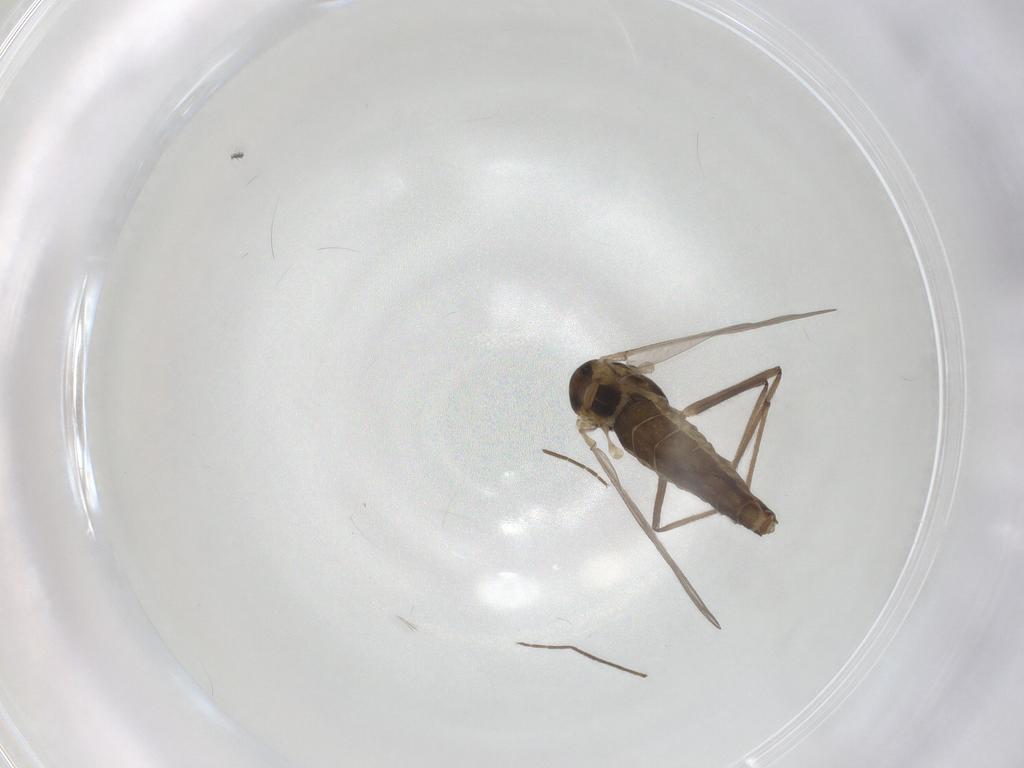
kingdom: Animalia
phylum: Arthropoda
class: Insecta
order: Diptera
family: Chironomidae
